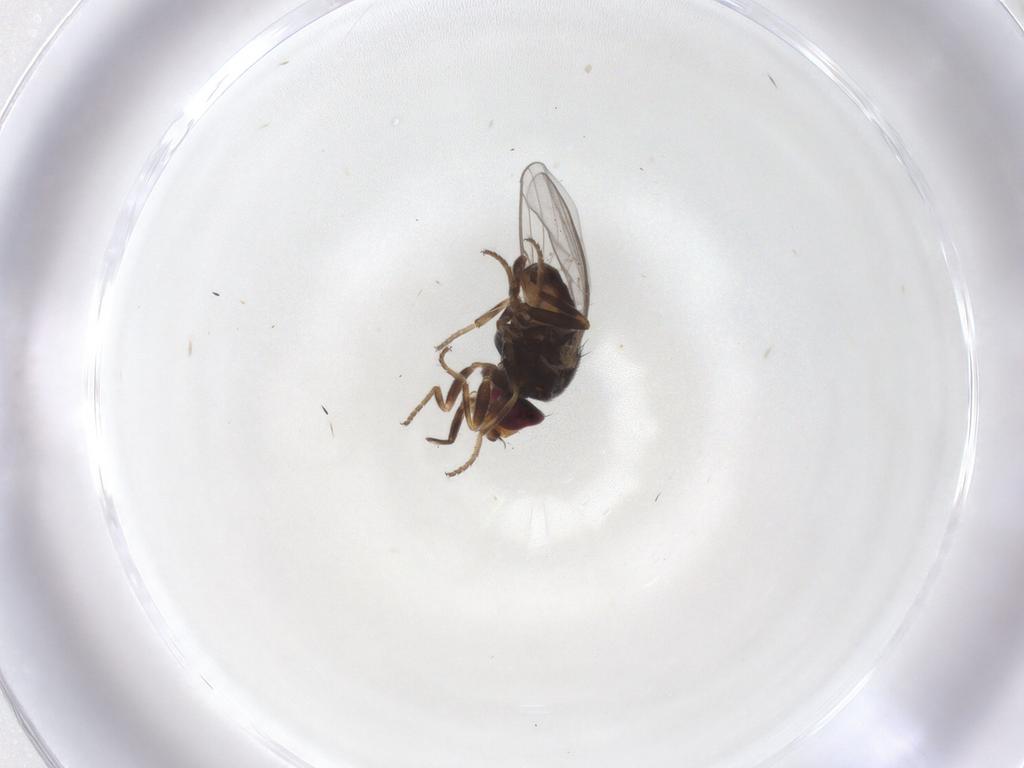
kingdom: Animalia
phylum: Arthropoda
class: Insecta
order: Diptera
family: Chloropidae
